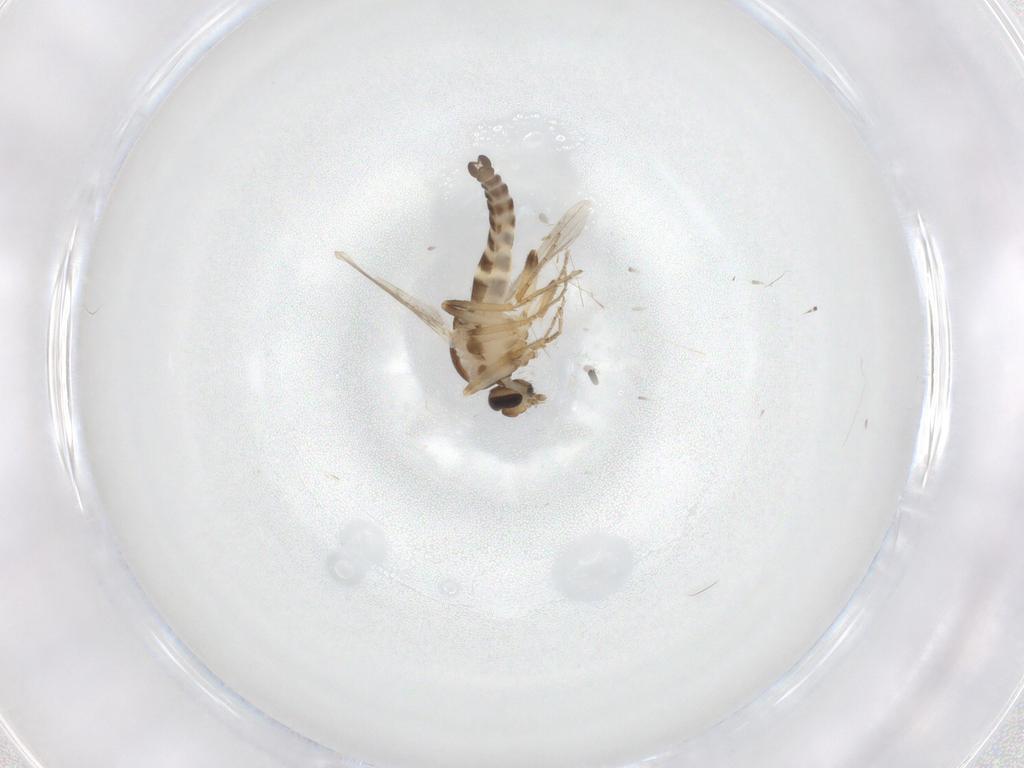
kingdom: Animalia
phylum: Arthropoda
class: Insecta
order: Diptera
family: Ceratopogonidae
